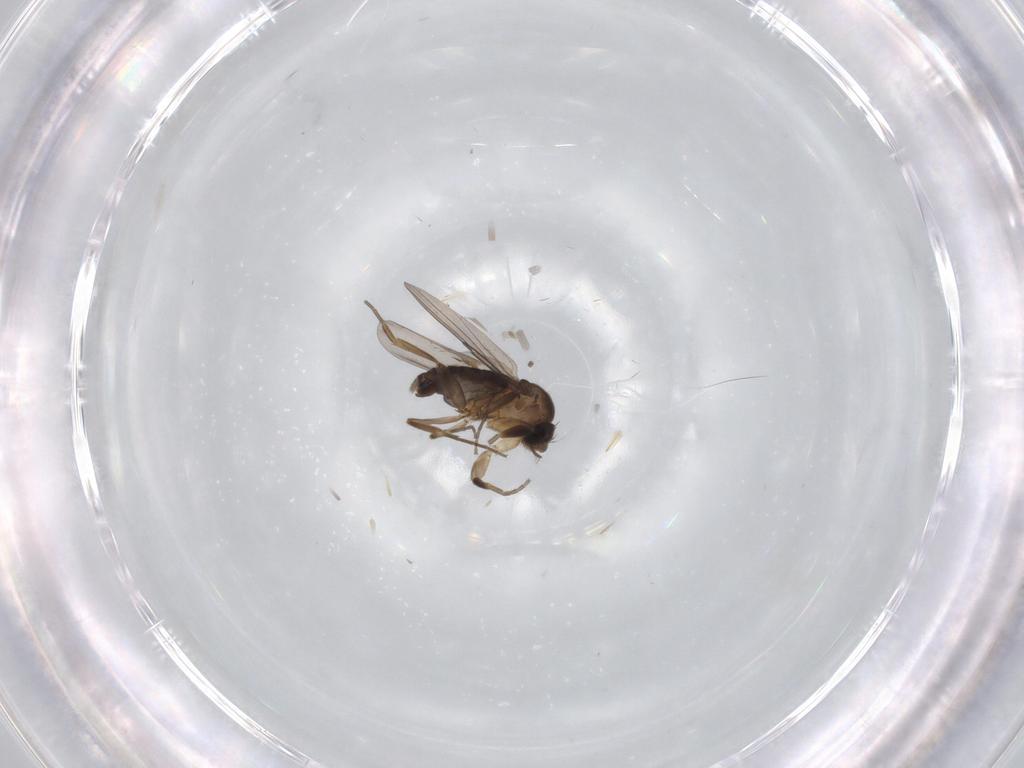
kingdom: Animalia
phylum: Arthropoda
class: Insecta
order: Diptera
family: Phoridae
